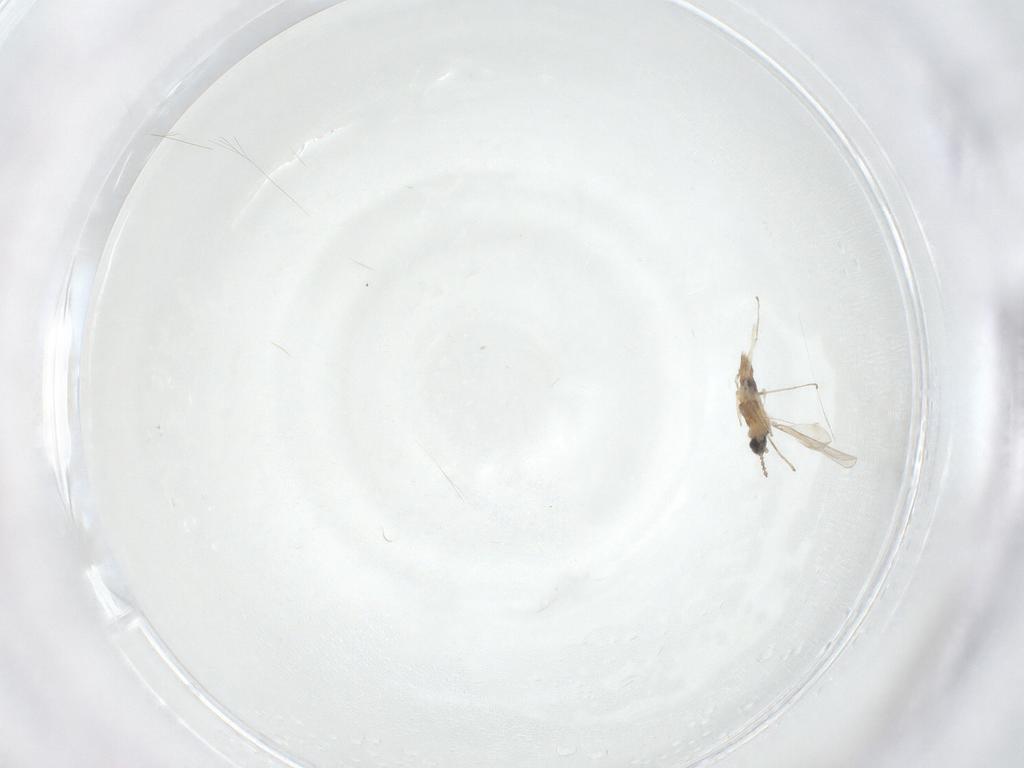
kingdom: Animalia
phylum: Arthropoda
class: Insecta
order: Diptera
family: Cecidomyiidae
